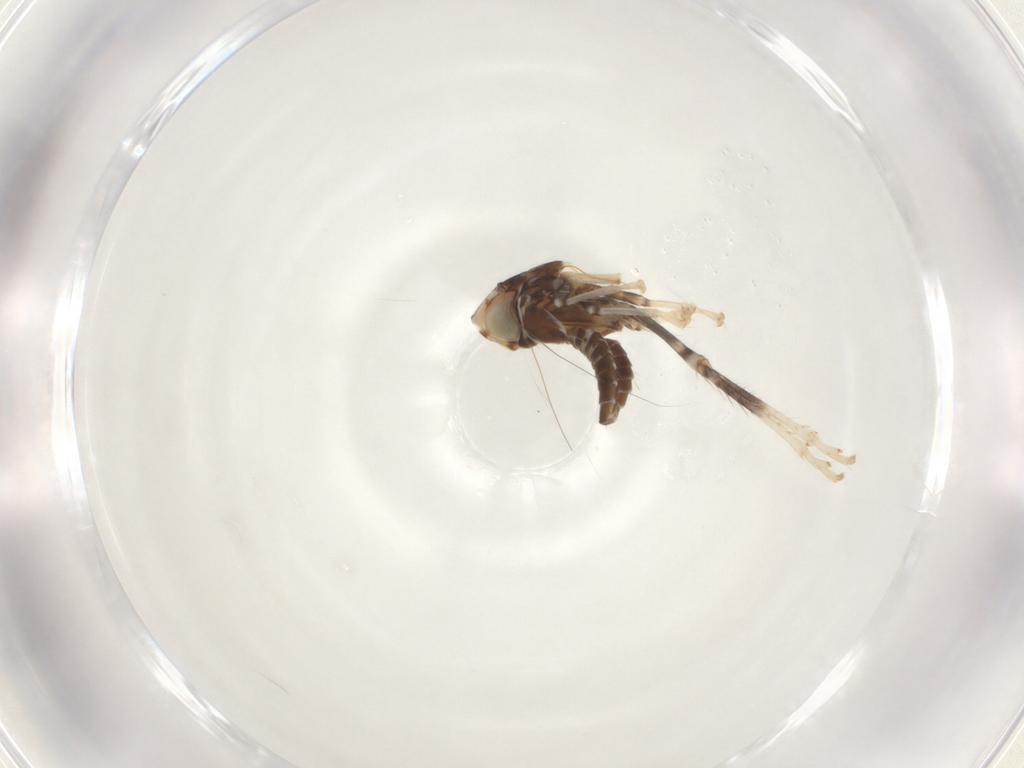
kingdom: Animalia
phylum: Arthropoda
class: Insecta
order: Hemiptera
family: Cicadellidae
